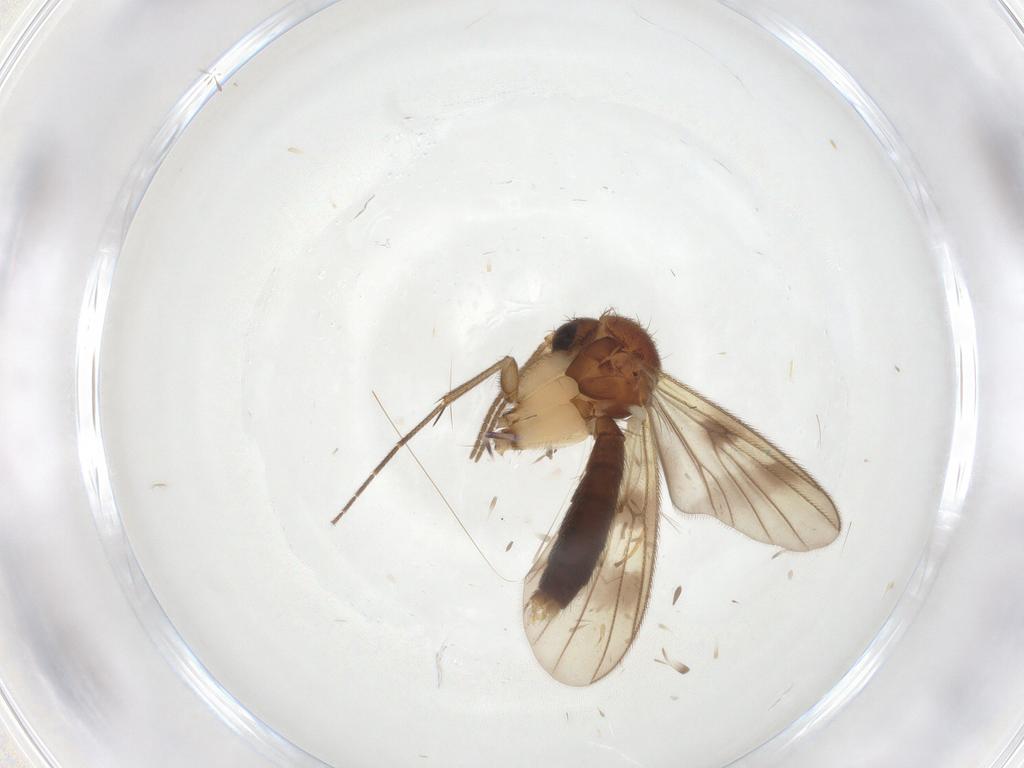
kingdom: Animalia
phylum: Arthropoda
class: Insecta
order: Diptera
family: Mycetophilidae
